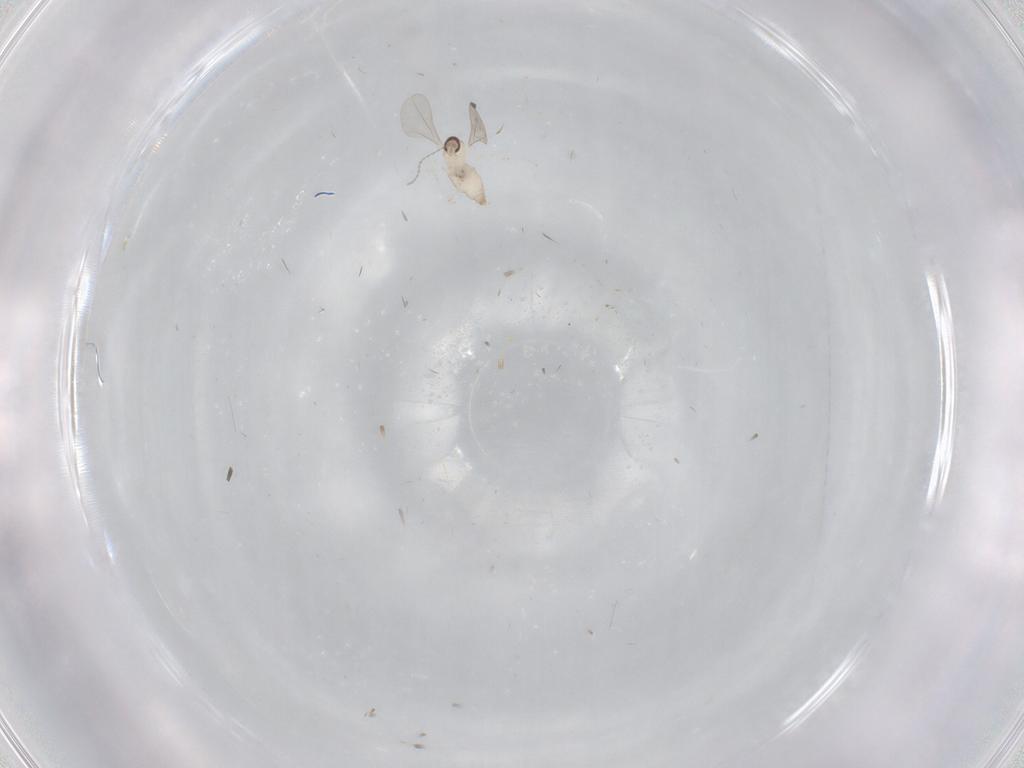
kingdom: Animalia
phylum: Arthropoda
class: Insecta
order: Diptera
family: Cecidomyiidae
